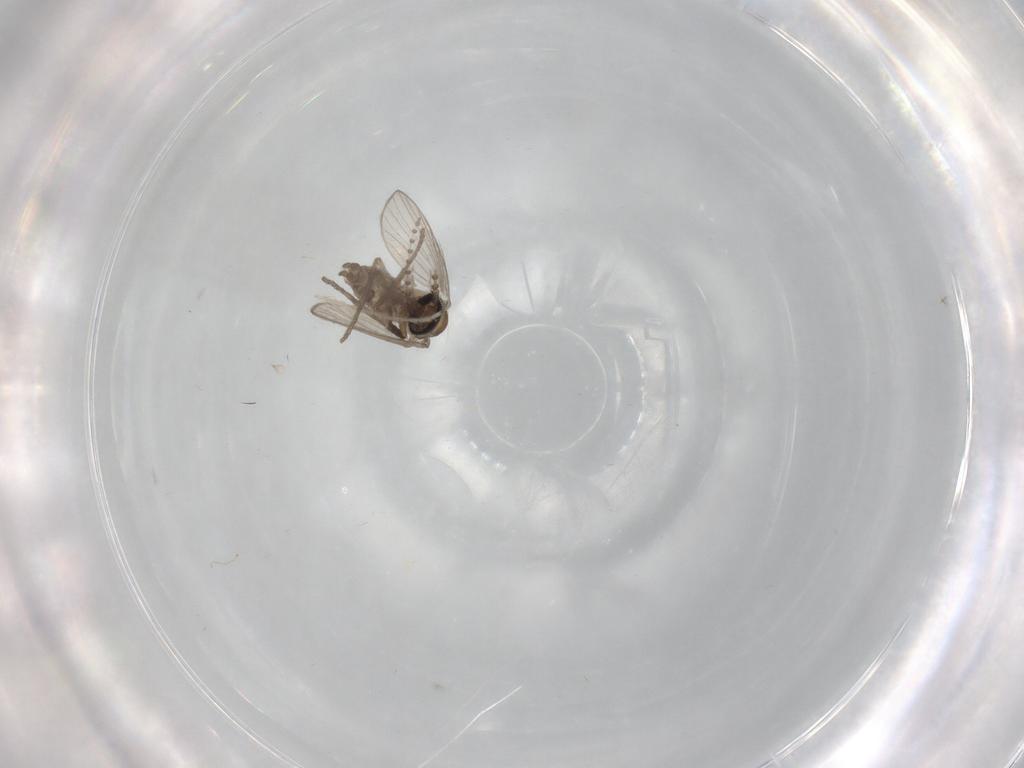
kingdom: Animalia
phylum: Arthropoda
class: Insecta
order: Diptera
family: Psychodidae
